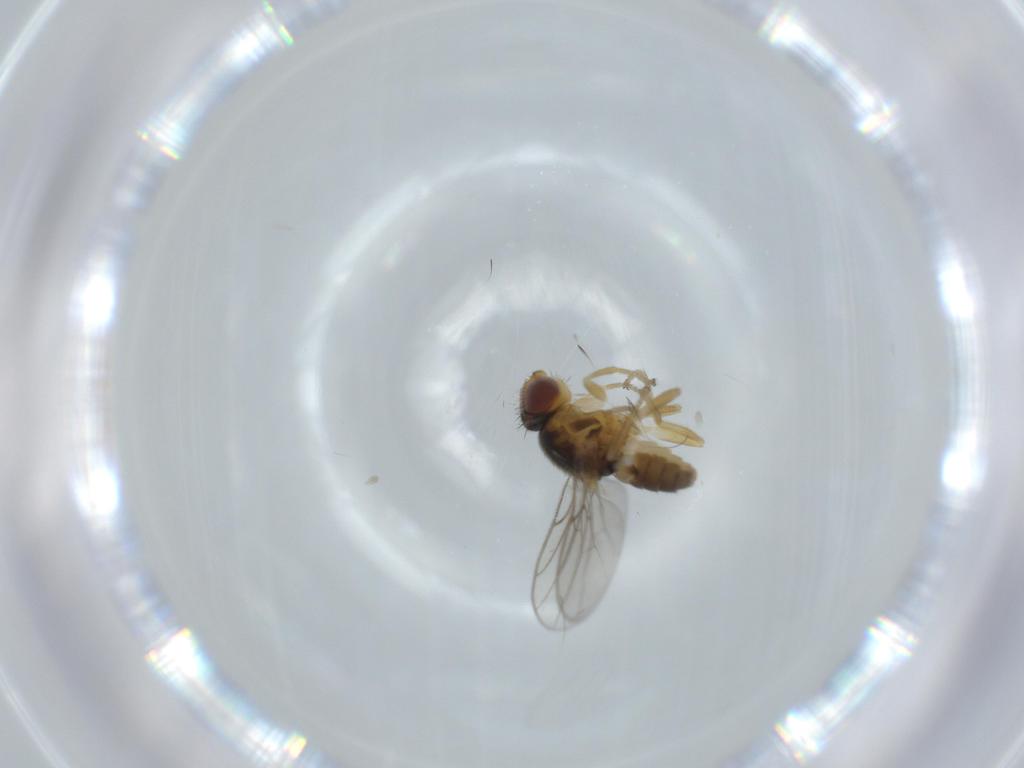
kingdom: Animalia
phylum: Arthropoda
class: Insecta
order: Diptera
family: Chloropidae
